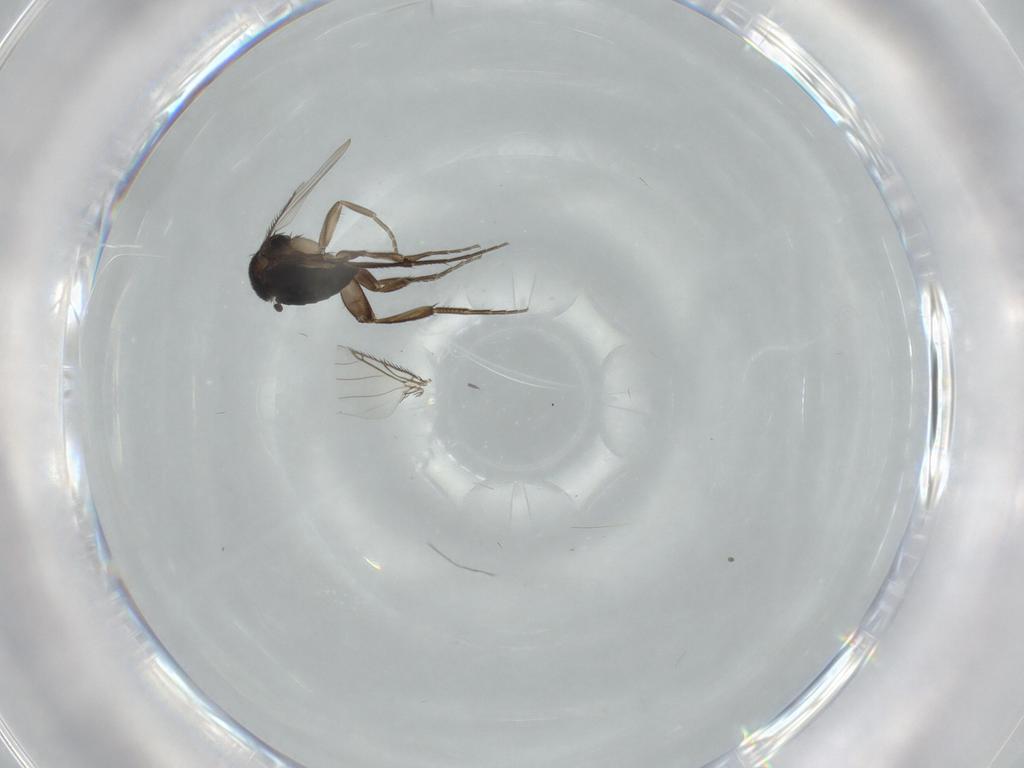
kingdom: Animalia
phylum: Arthropoda
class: Insecta
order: Diptera
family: Phoridae
